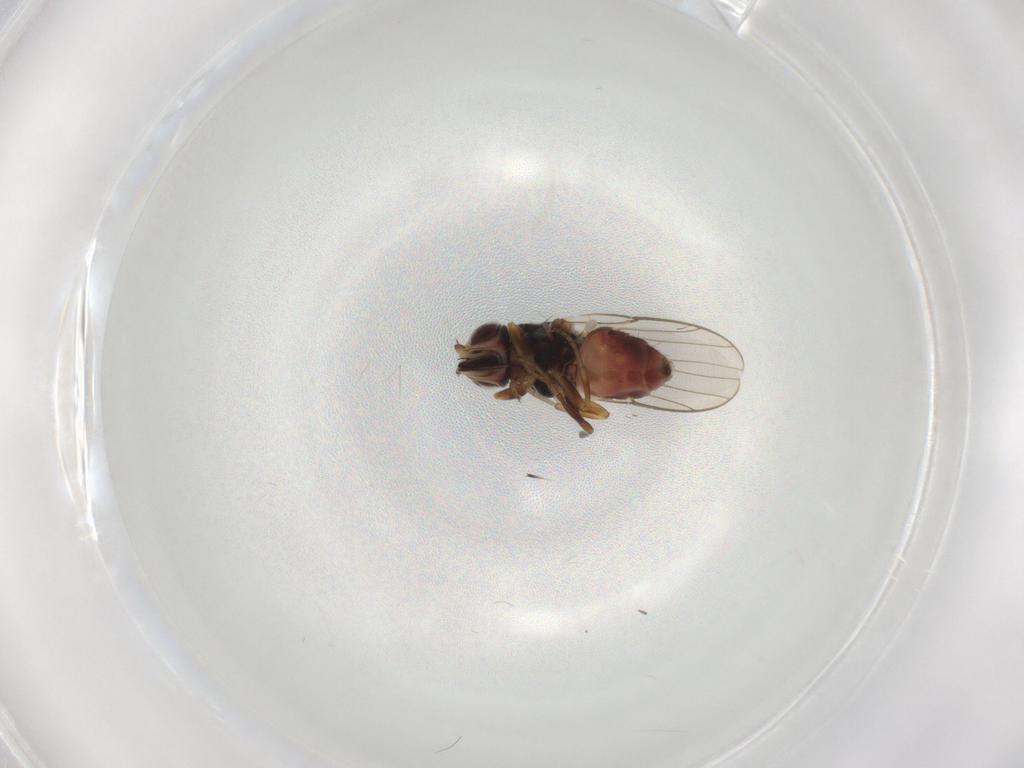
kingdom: Animalia
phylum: Arthropoda
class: Insecta
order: Diptera
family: Chloropidae
